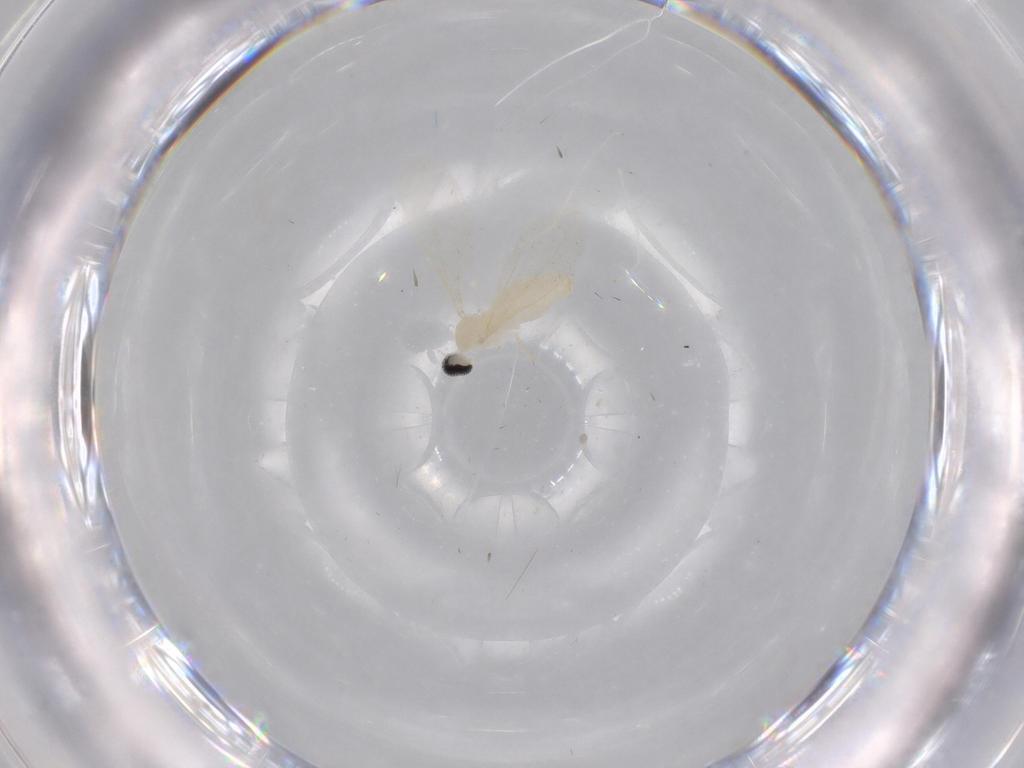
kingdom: Animalia
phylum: Arthropoda
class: Insecta
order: Diptera
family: Cecidomyiidae
